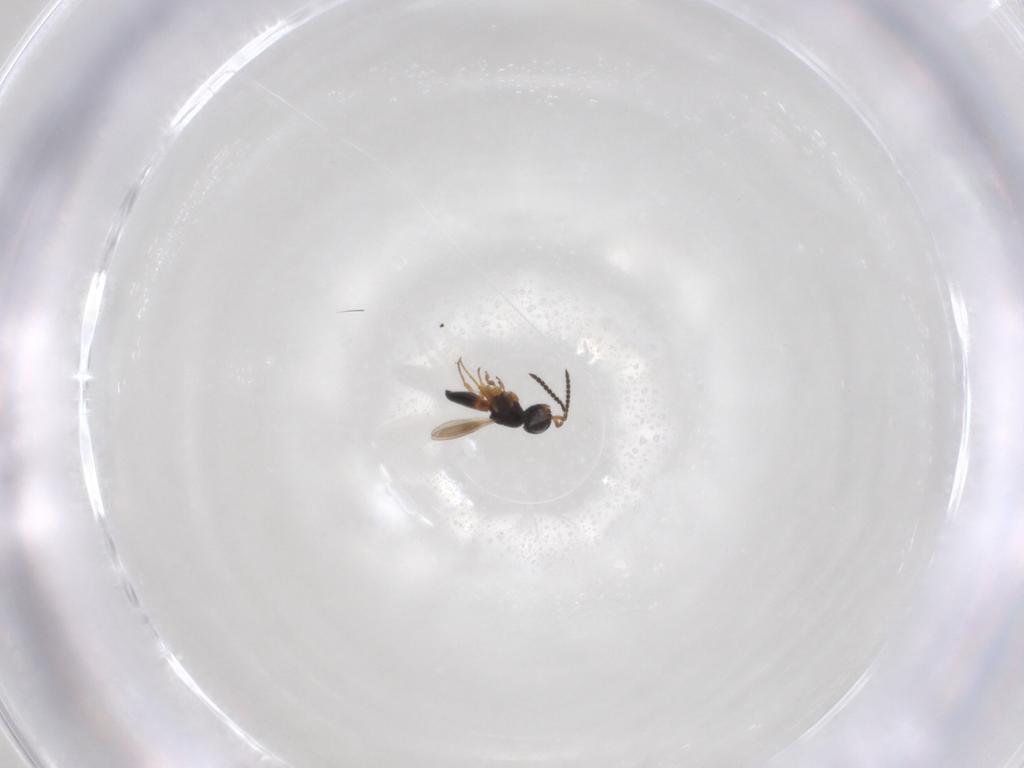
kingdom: Animalia
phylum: Arthropoda
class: Insecta
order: Hymenoptera
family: Scelionidae
